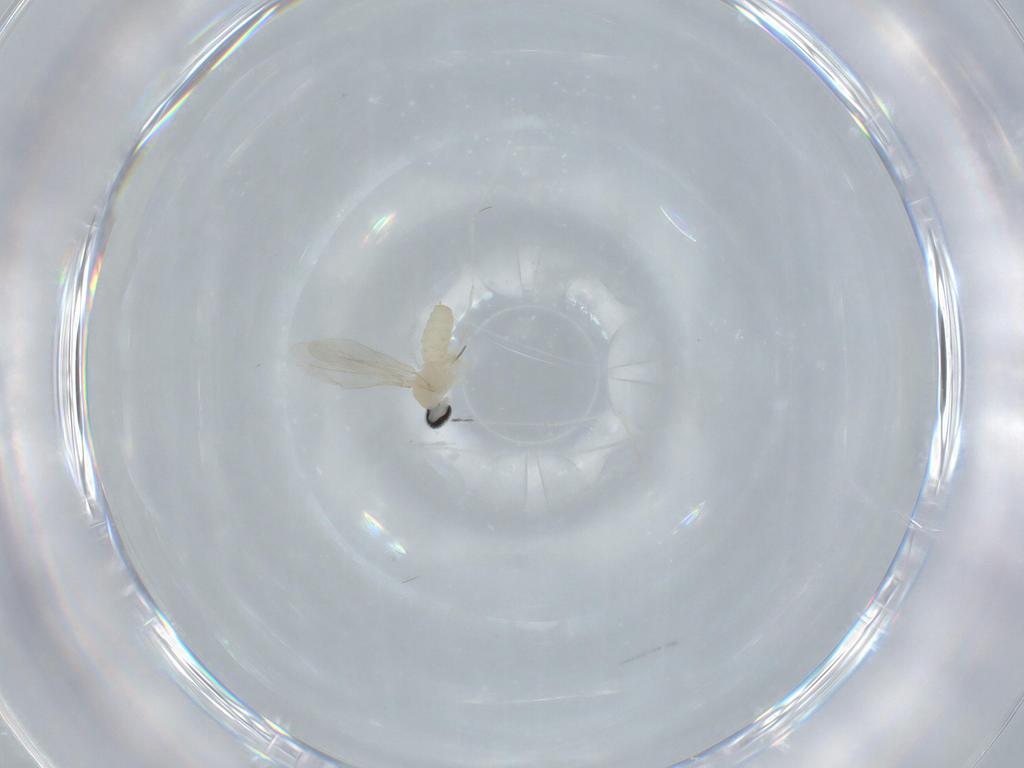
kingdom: Animalia
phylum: Arthropoda
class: Insecta
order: Diptera
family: Cecidomyiidae
